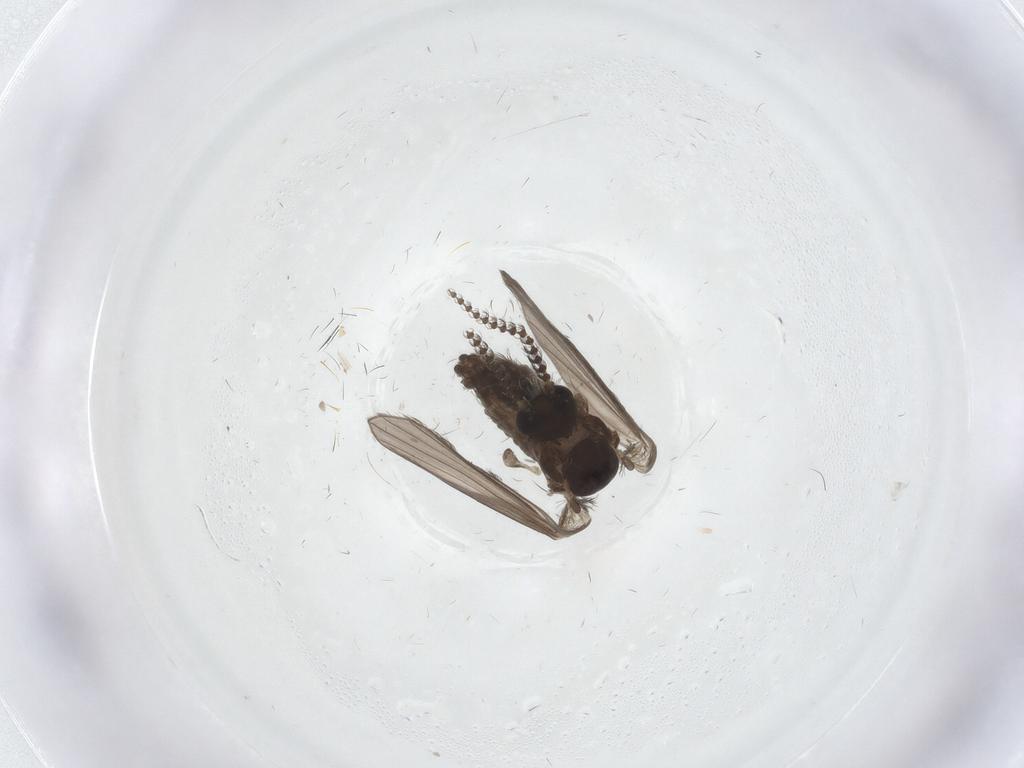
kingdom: Animalia
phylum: Arthropoda
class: Insecta
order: Diptera
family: Psychodidae
